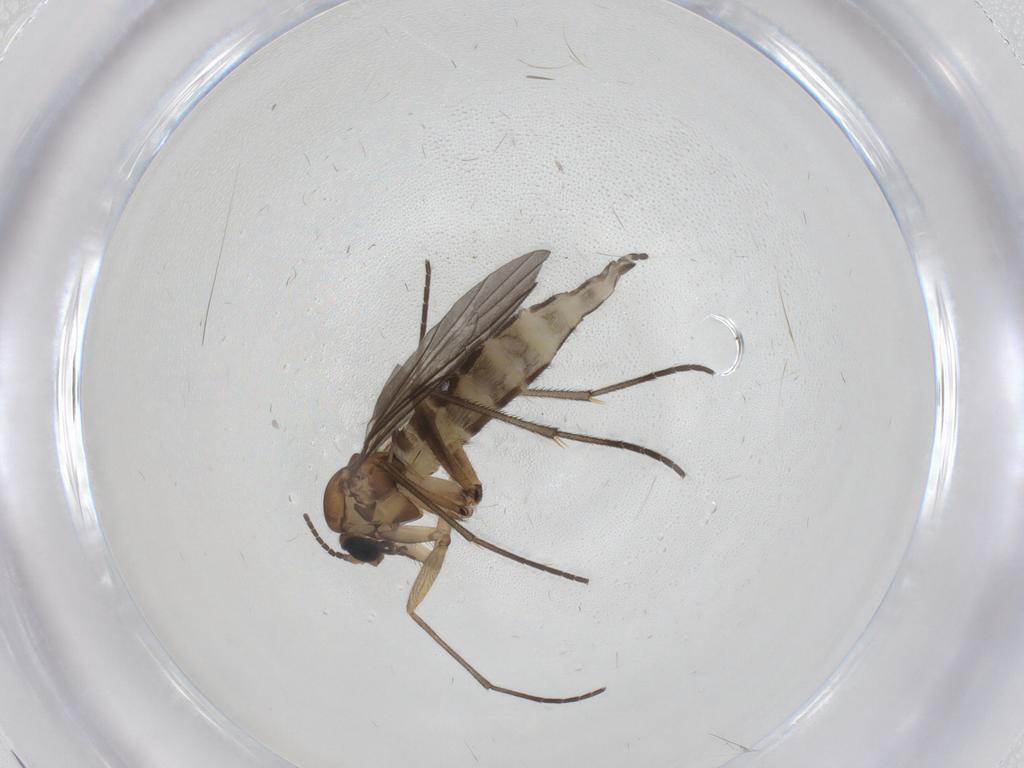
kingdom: Animalia
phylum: Arthropoda
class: Insecta
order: Diptera
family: Sciaridae
